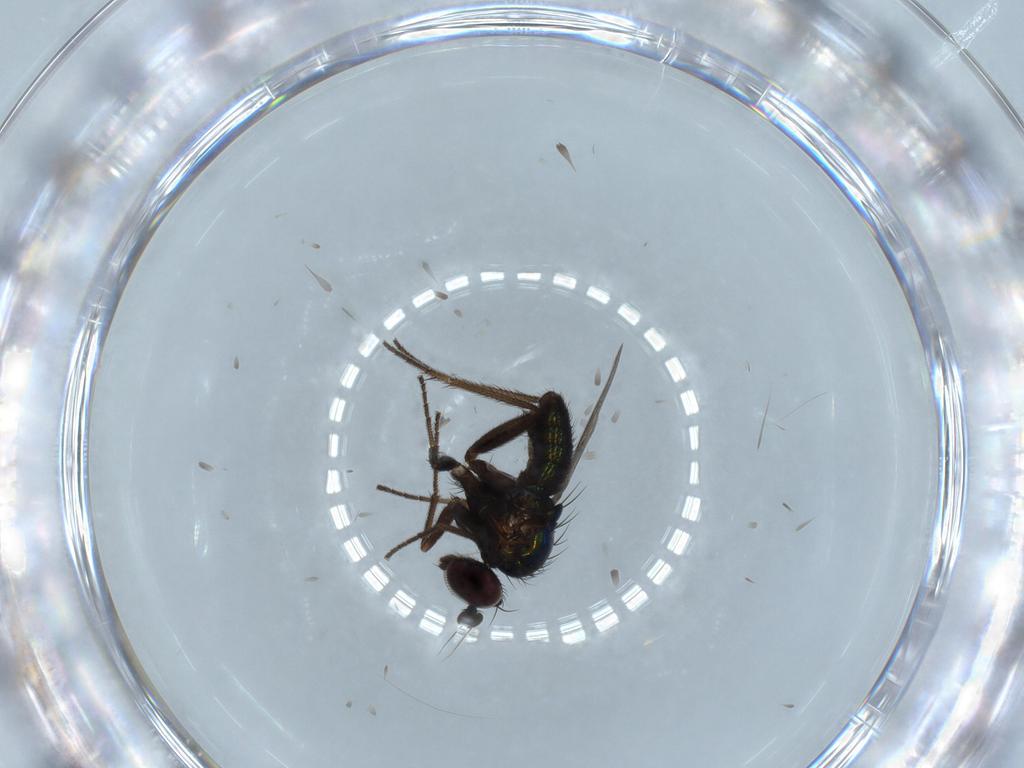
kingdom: Animalia
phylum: Arthropoda
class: Insecta
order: Diptera
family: Dolichopodidae
